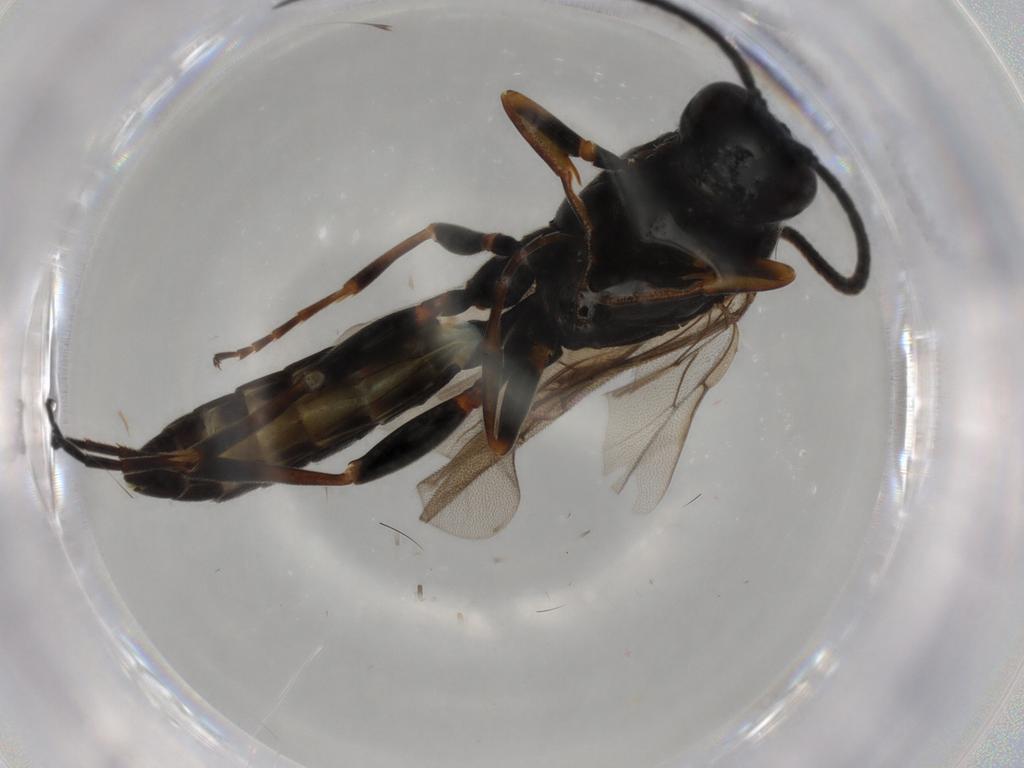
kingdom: Animalia
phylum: Arthropoda
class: Insecta
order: Hymenoptera
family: Ichneumonidae
